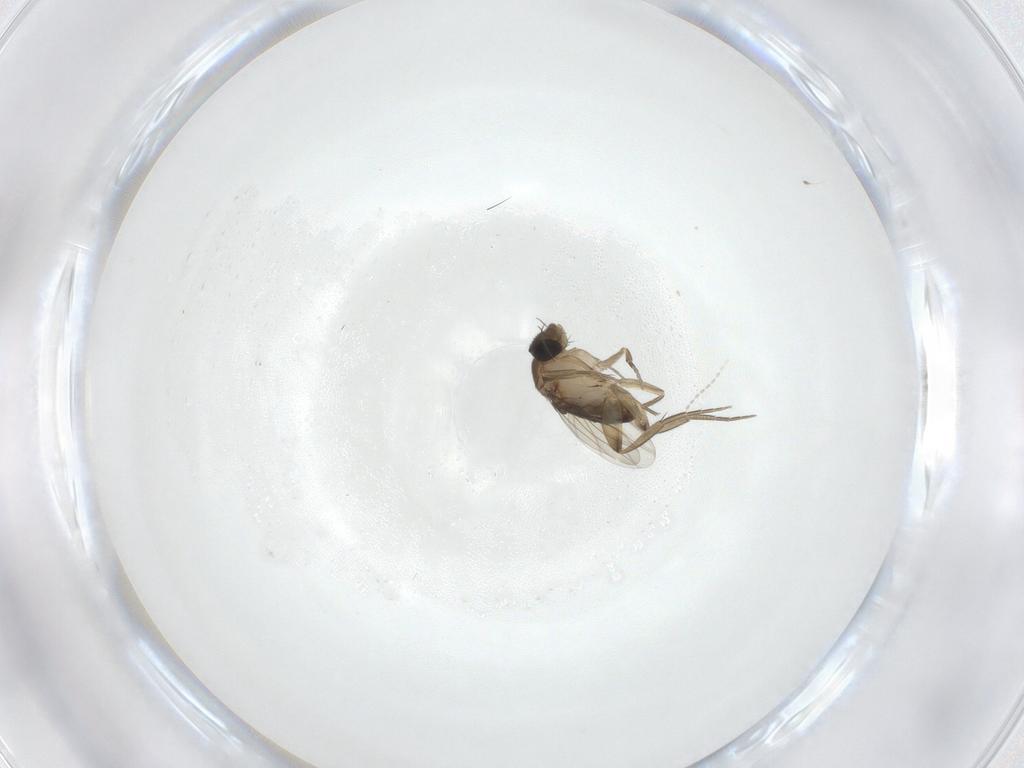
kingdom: Animalia
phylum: Arthropoda
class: Insecta
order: Diptera
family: Phoridae
